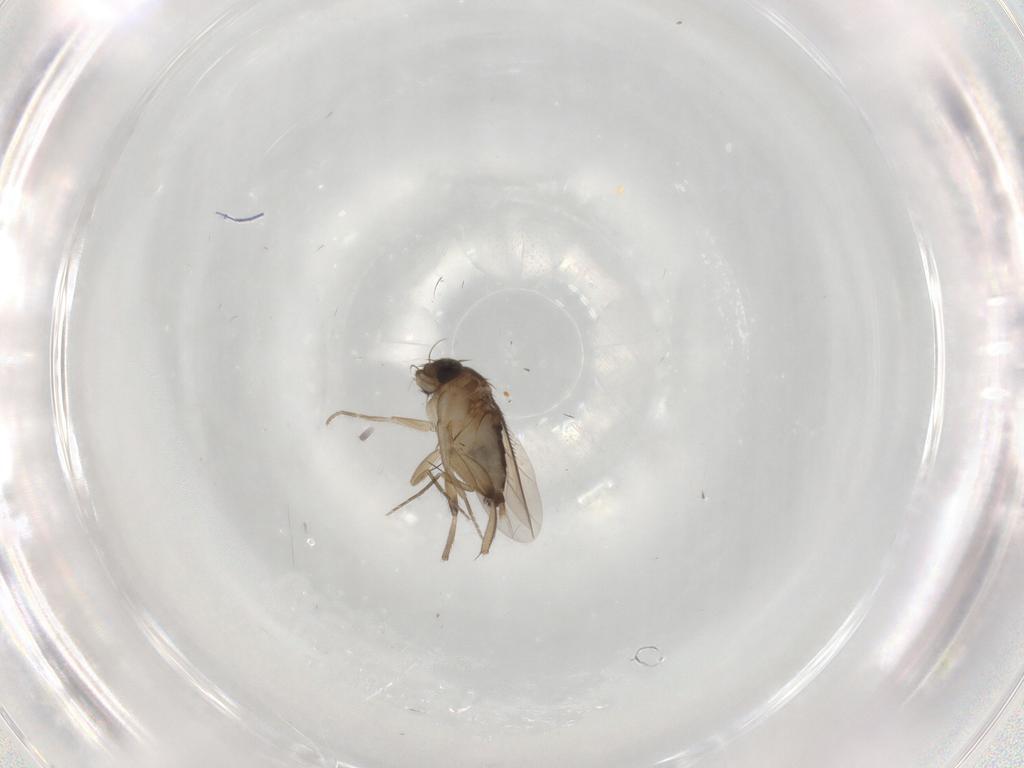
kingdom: Animalia
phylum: Arthropoda
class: Insecta
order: Diptera
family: Phoridae
